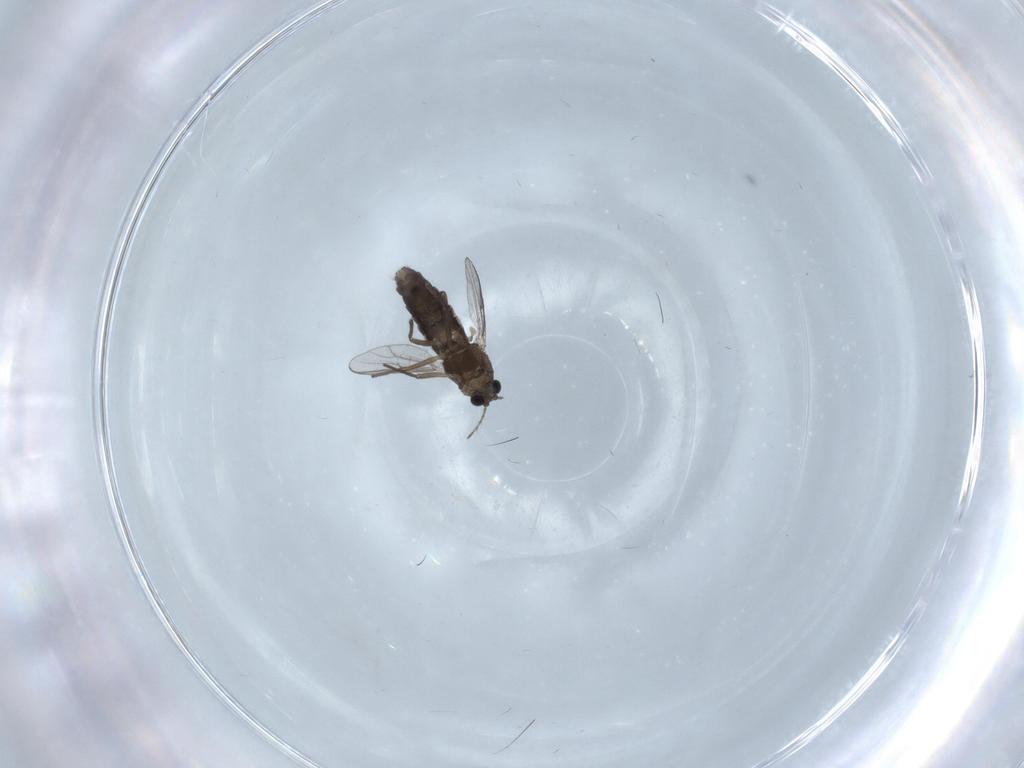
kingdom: Animalia
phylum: Arthropoda
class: Insecta
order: Diptera
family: Chironomidae
